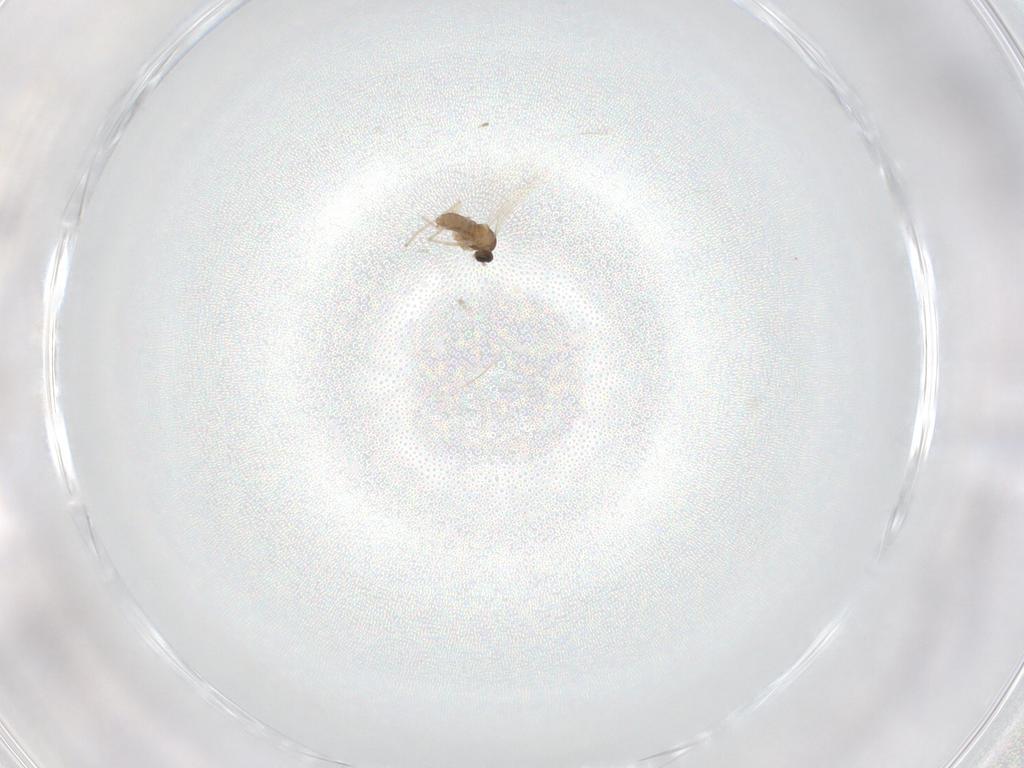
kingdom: Animalia
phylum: Arthropoda
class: Insecta
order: Diptera
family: Cecidomyiidae
